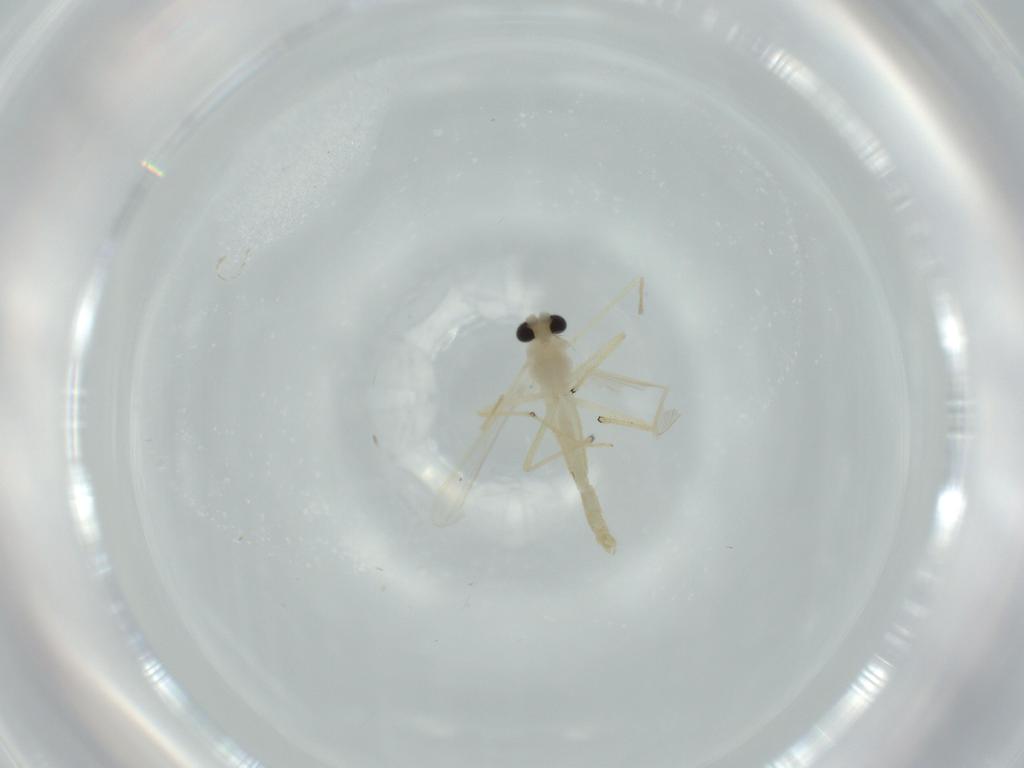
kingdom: Animalia
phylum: Arthropoda
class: Insecta
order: Diptera
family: Chironomidae
